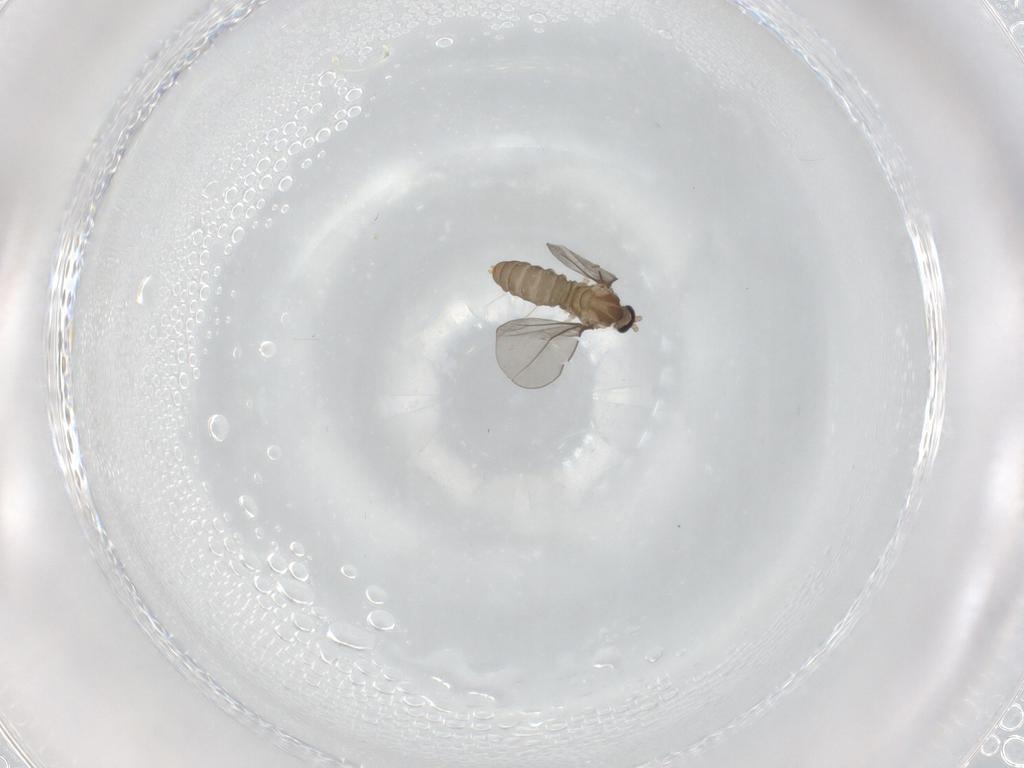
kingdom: Animalia
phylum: Arthropoda
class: Insecta
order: Diptera
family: Cecidomyiidae
